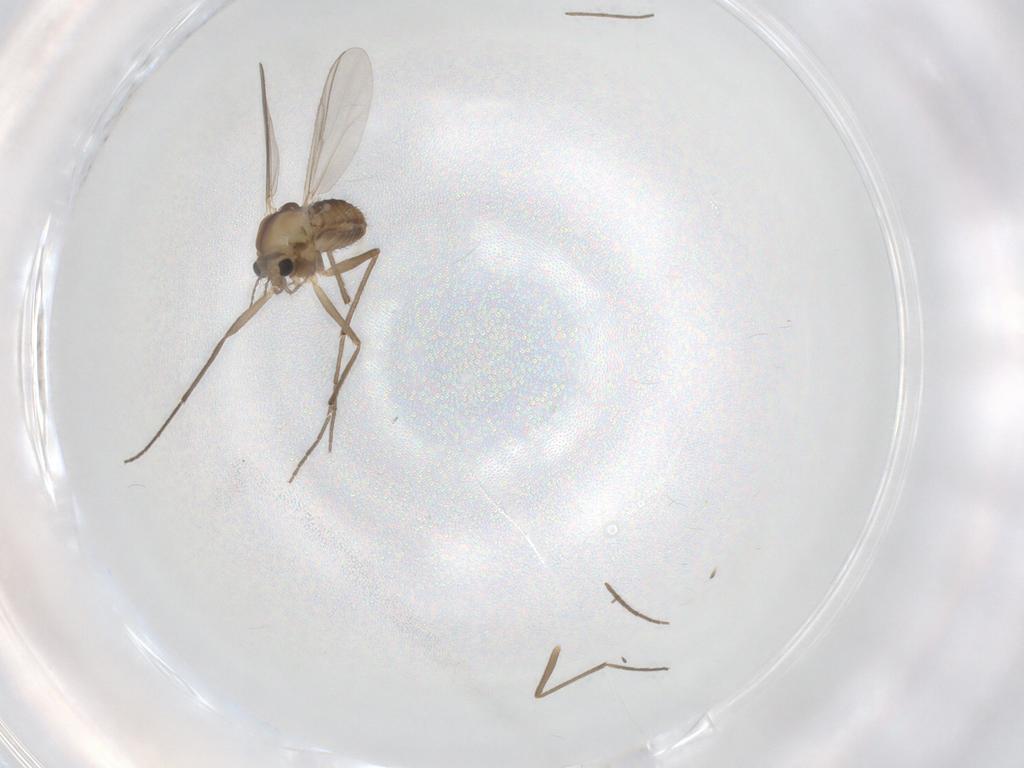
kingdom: Animalia
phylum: Arthropoda
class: Insecta
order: Diptera
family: Chironomidae
